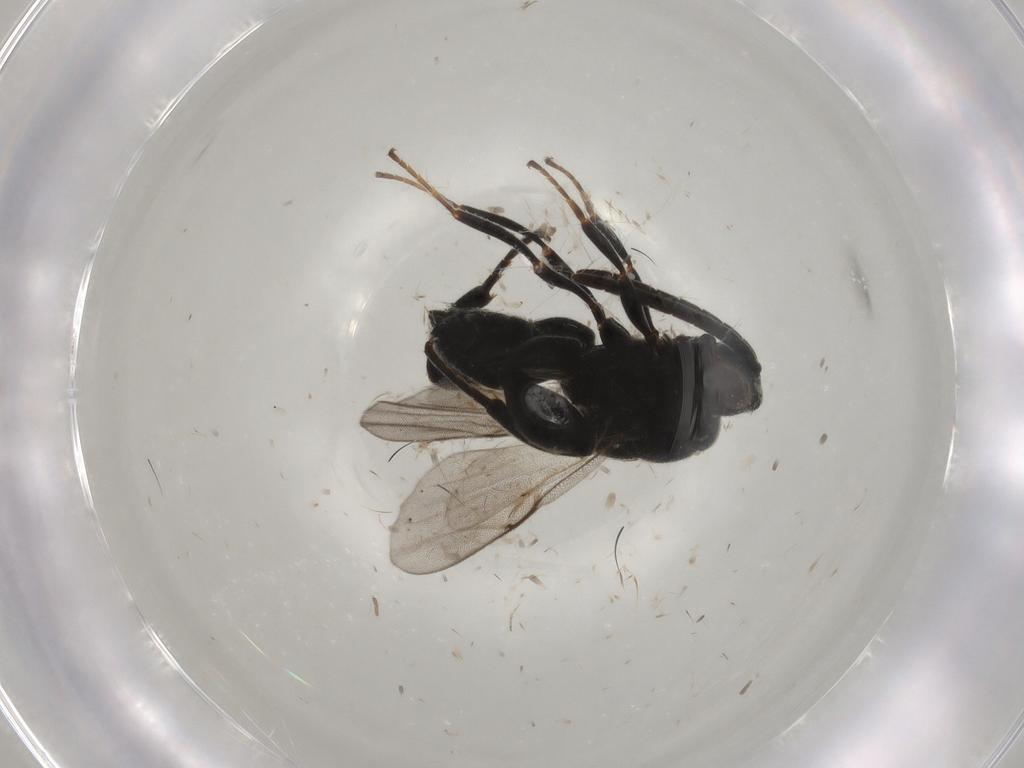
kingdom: Animalia
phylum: Arthropoda
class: Insecta
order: Hymenoptera
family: Chalcididae
